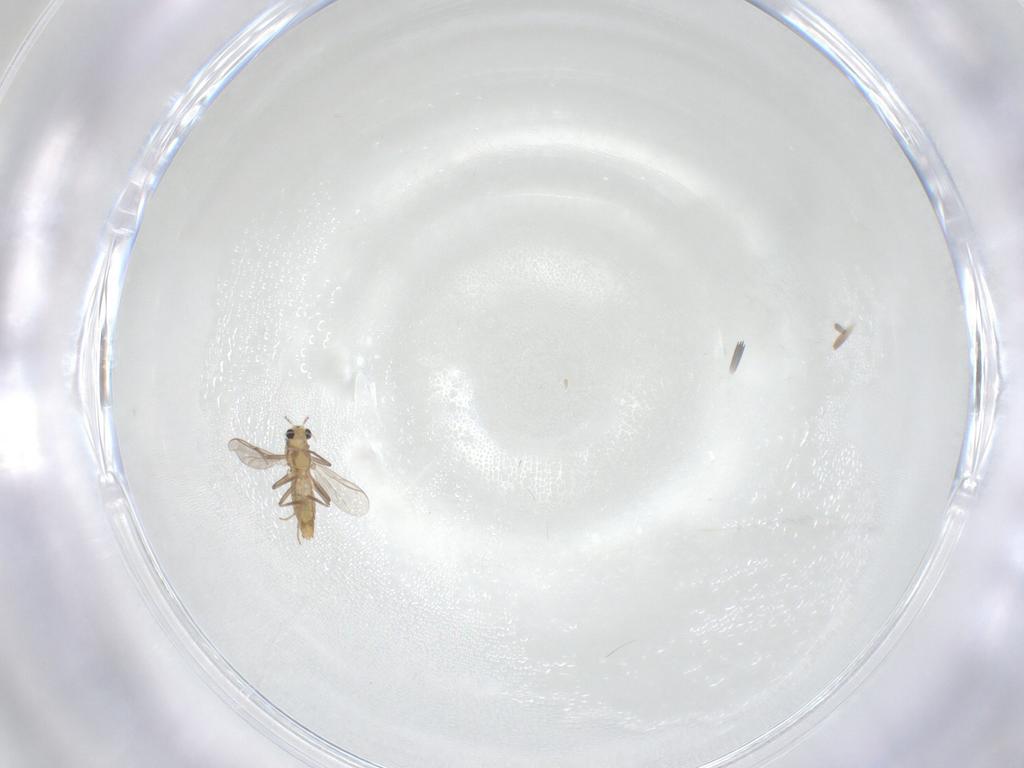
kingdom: Animalia
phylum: Arthropoda
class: Insecta
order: Diptera
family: Chironomidae
